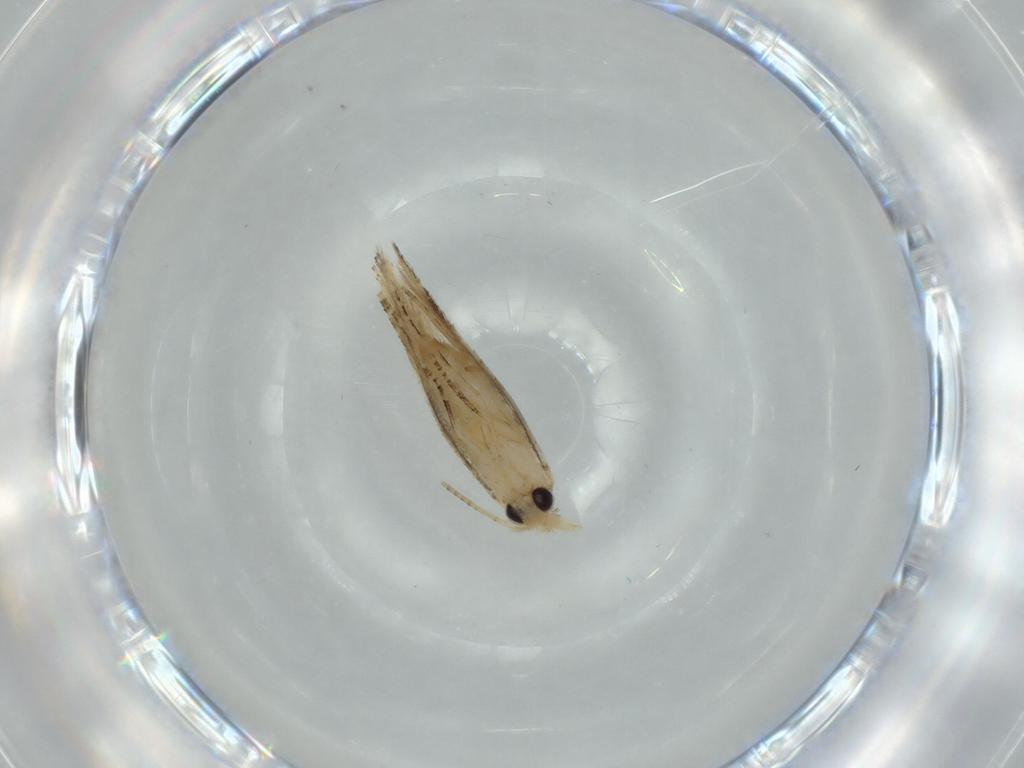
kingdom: Animalia
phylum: Arthropoda
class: Insecta
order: Lepidoptera
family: Bucculatricidae
